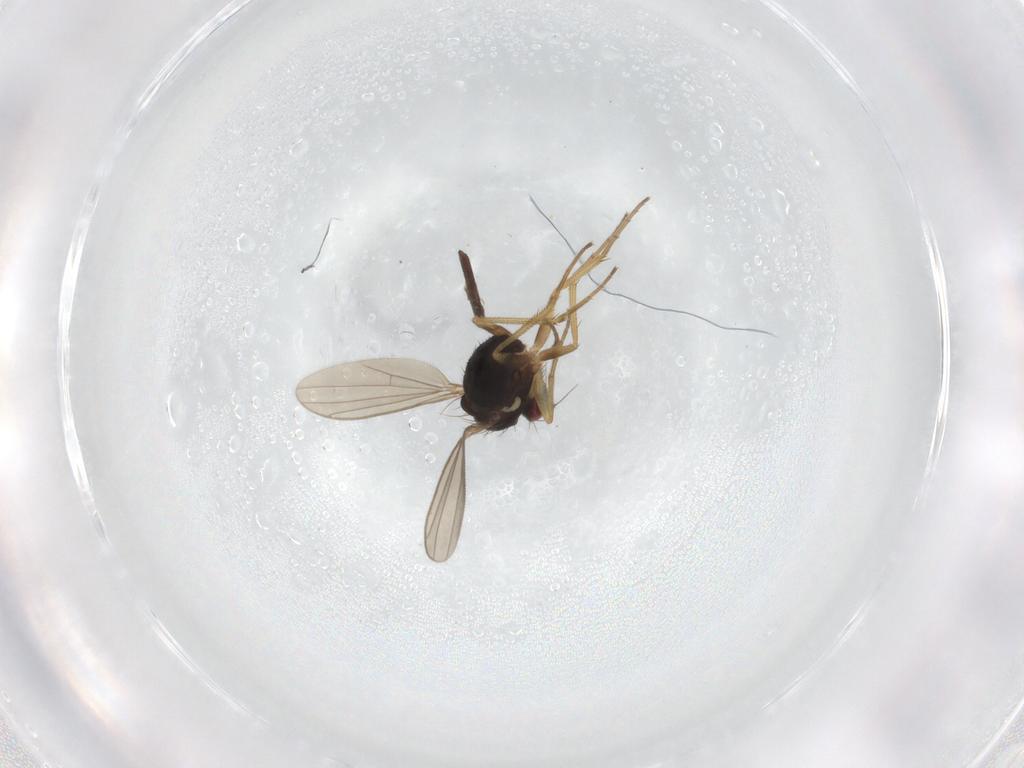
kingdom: Animalia
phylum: Arthropoda
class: Insecta
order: Diptera
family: Dolichopodidae
